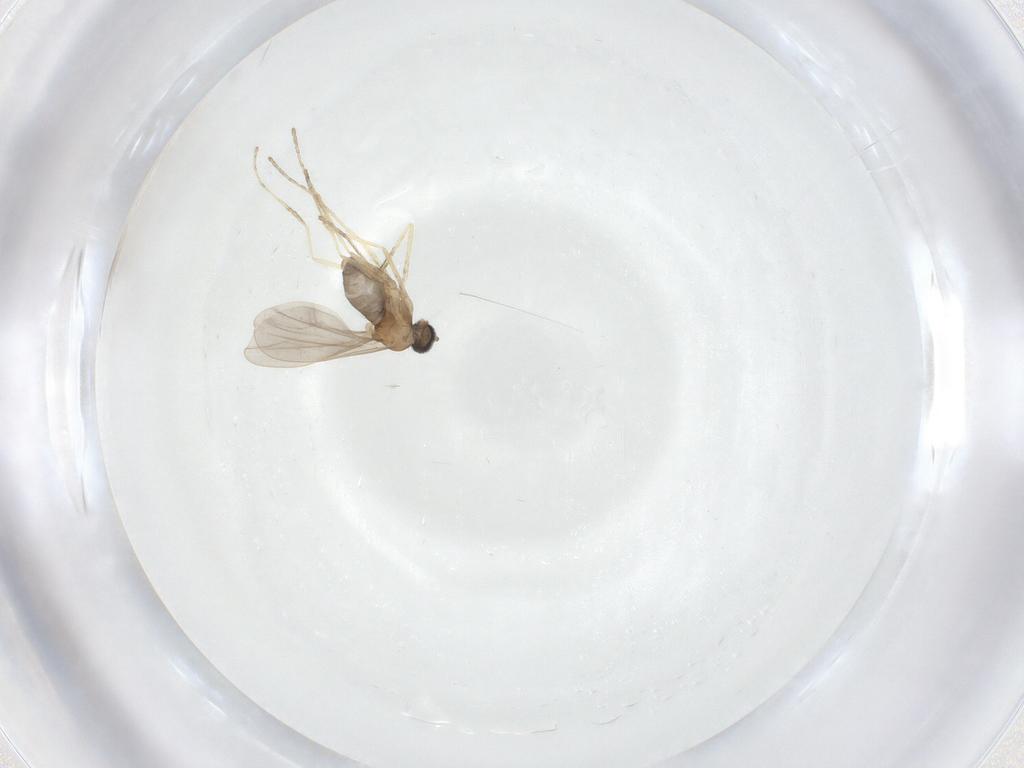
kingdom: Animalia
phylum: Arthropoda
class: Insecta
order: Diptera
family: Cecidomyiidae
